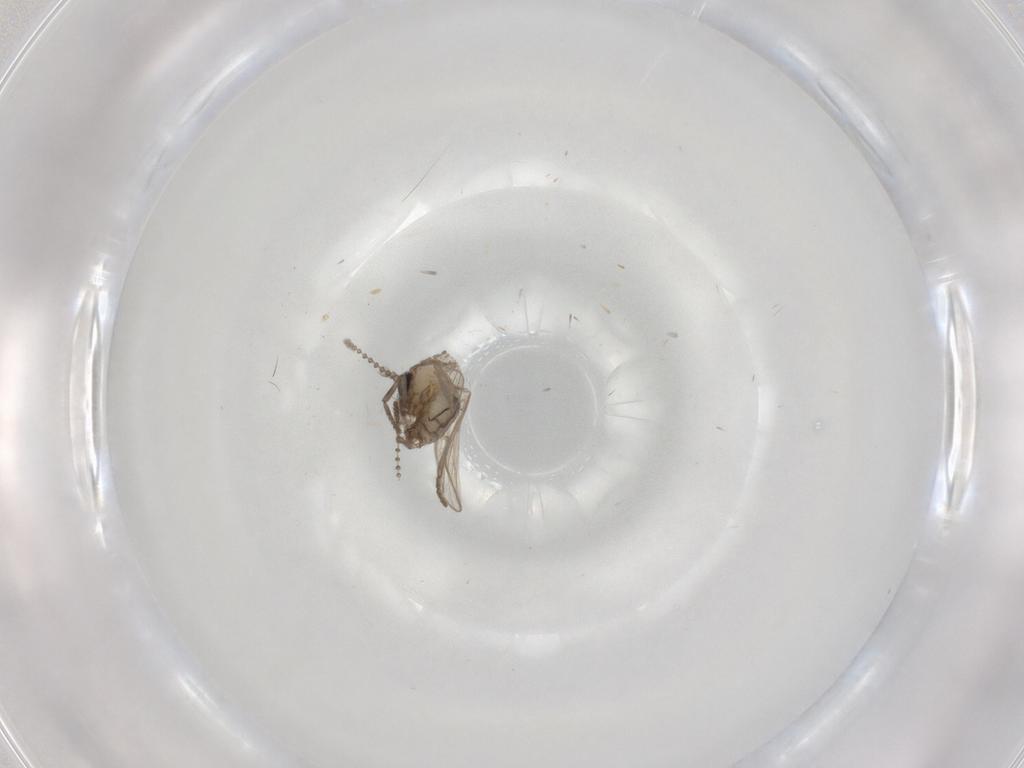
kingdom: Animalia
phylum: Arthropoda
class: Insecta
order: Diptera
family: Psychodidae
